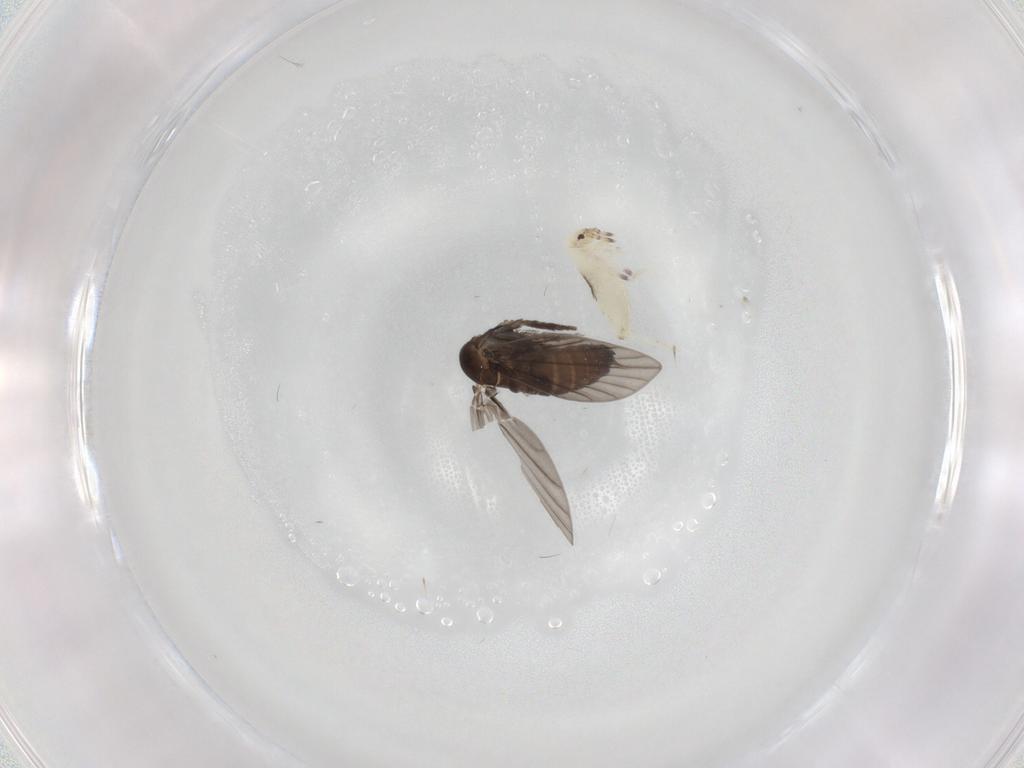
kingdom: Animalia
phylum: Arthropoda
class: Insecta
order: Diptera
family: Psychodidae
